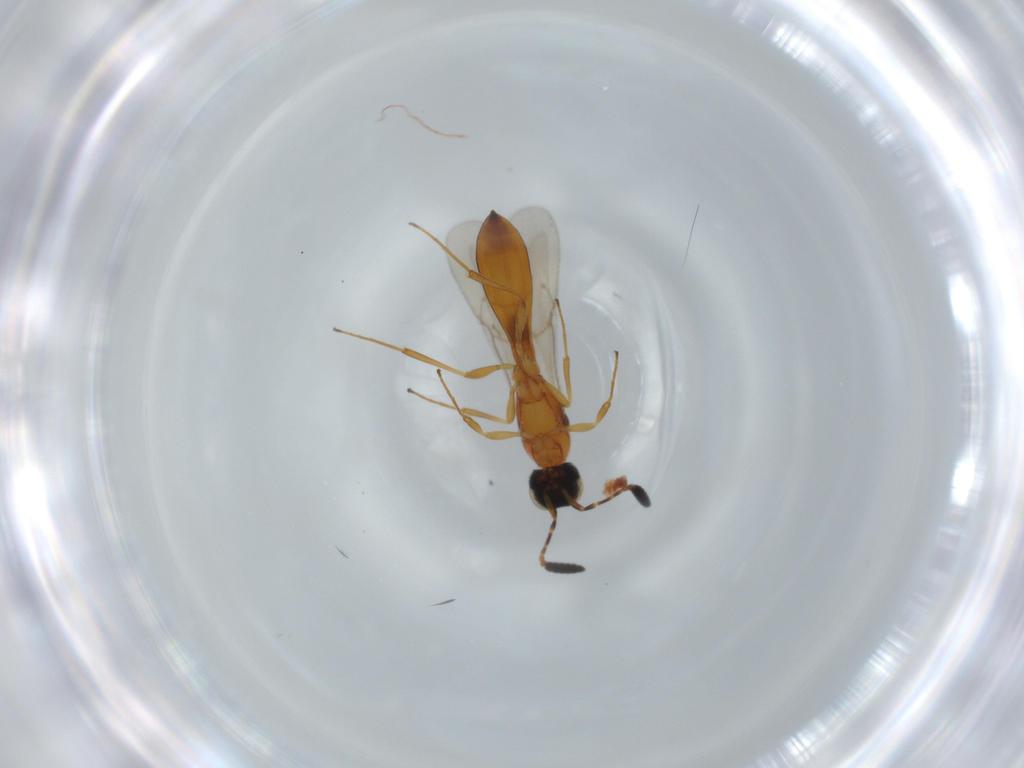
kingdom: Animalia
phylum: Arthropoda
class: Insecta
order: Hymenoptera
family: Scelionidae
